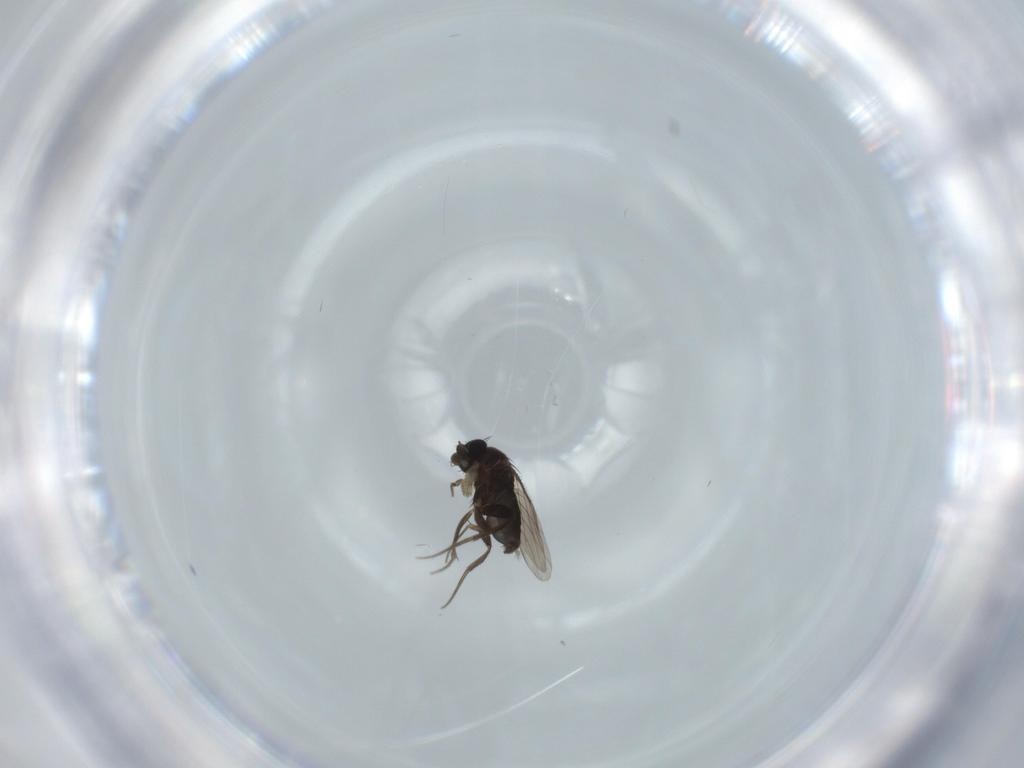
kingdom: Animalia
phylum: Arthropoda
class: Insecta
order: Diptera
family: Phoridae
